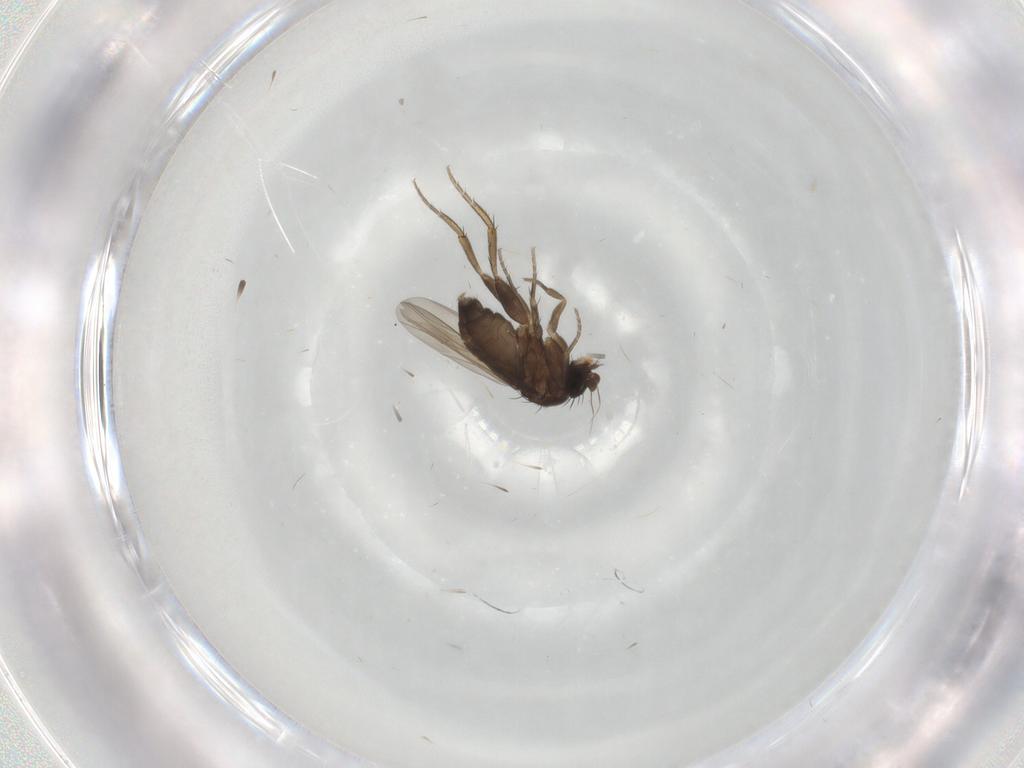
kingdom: Animalia
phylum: Arthropoda
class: Insecta
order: Diptera
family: Phoridae
